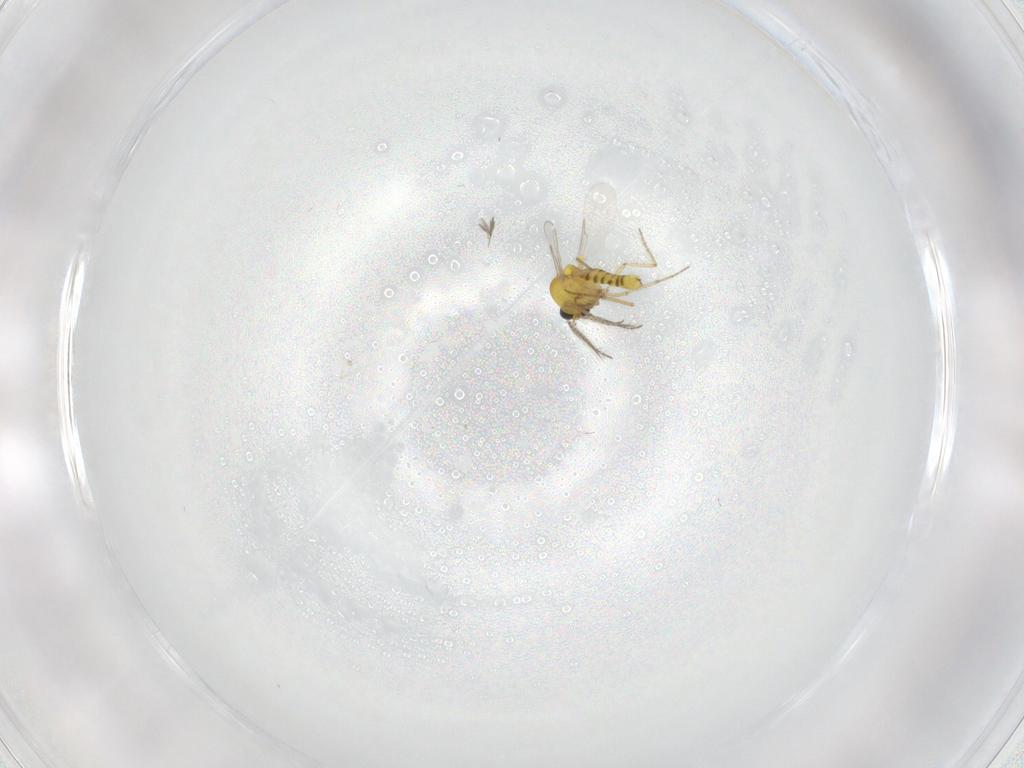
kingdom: Animalia
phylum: Arthropoda
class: Insecta
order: Diptera
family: Ceratopogonidae
